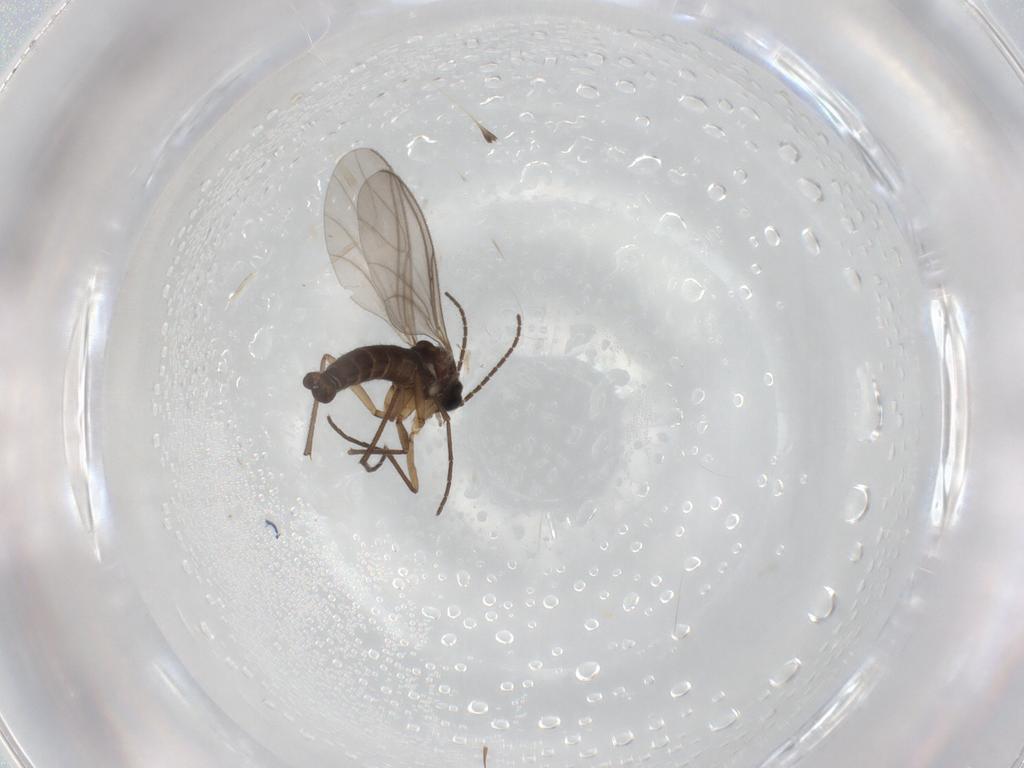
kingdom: Animalia
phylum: Arthropoda
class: Insecta
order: Diptera
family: Sciaridae
